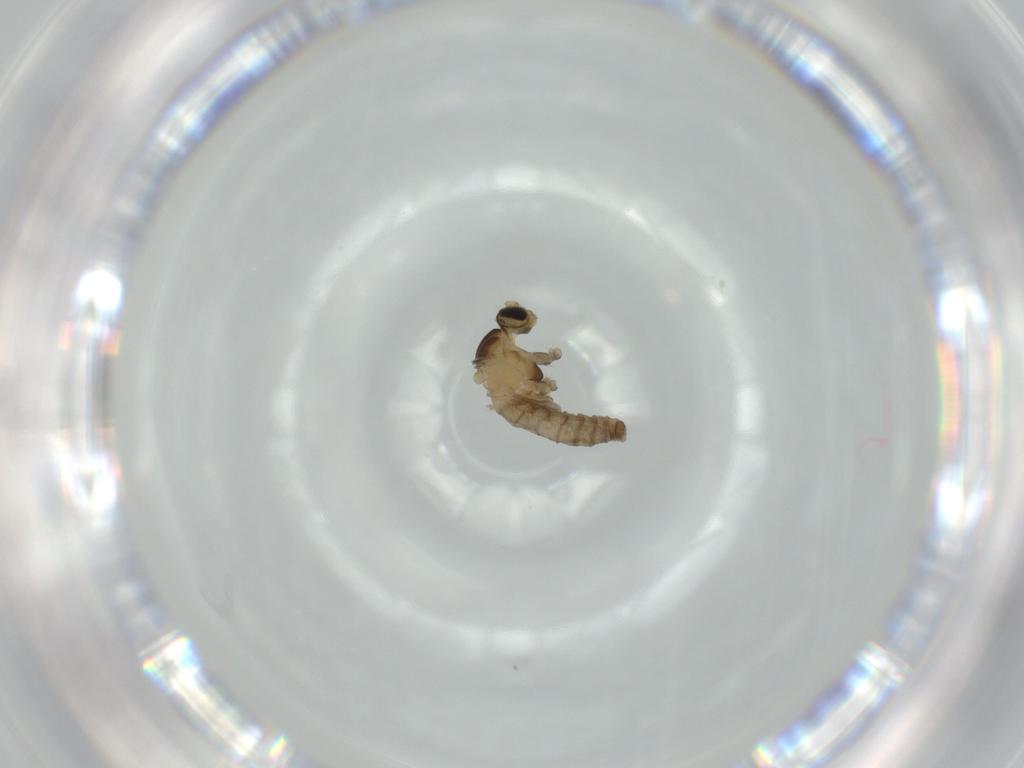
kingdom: Animalia
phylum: Arthropoda
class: Insecta
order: Diptera
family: Cecidomyiidae
